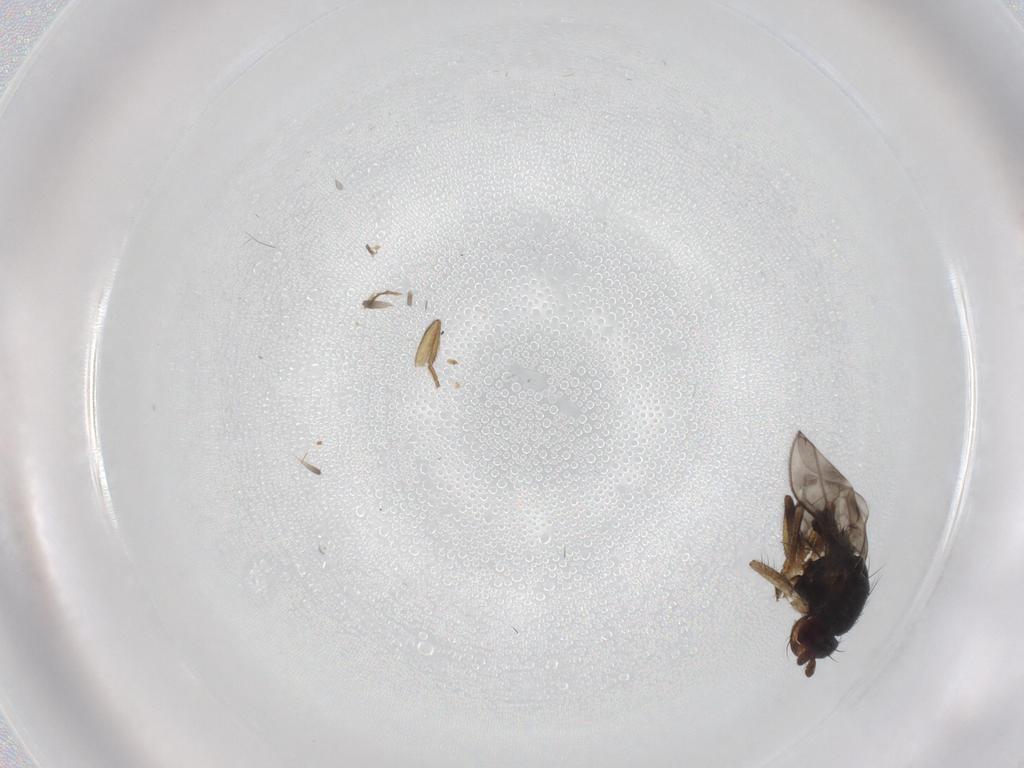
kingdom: Animalia
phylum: Arthropoda
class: Insecta
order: Diptera
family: Sphaeroceridae
